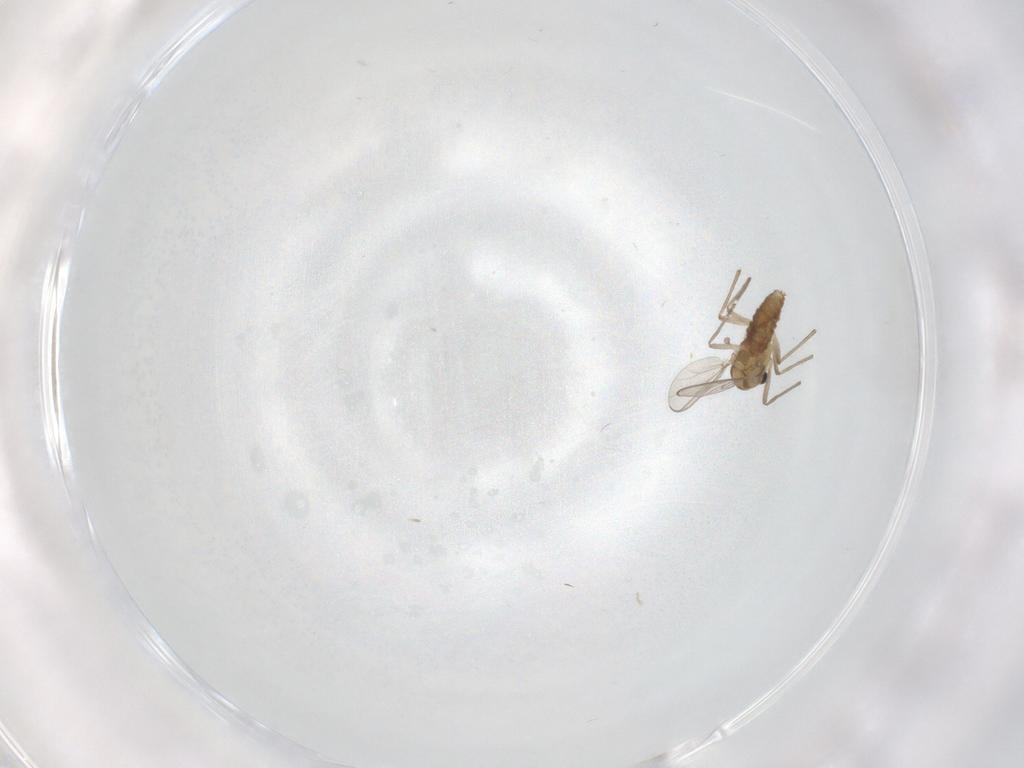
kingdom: Animalia
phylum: Arthropoda
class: Insecta
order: Diptera
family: Chironomidae
